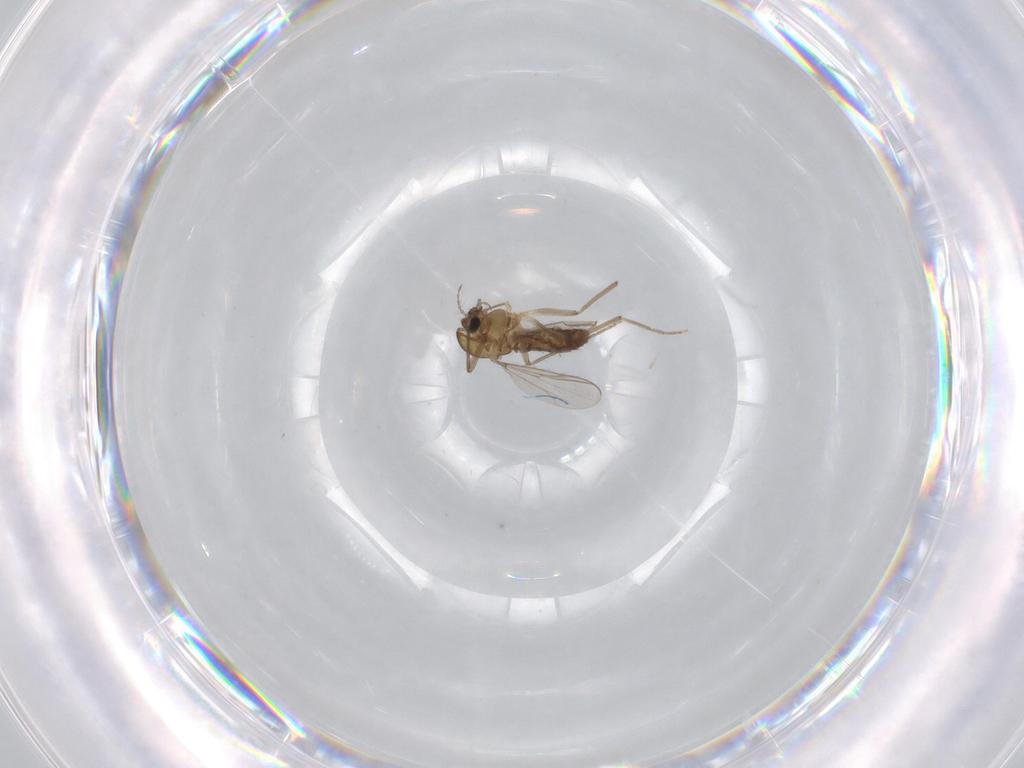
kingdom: Animalia
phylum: Arthropoda
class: Insecta
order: Diptera
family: Chironomidae
